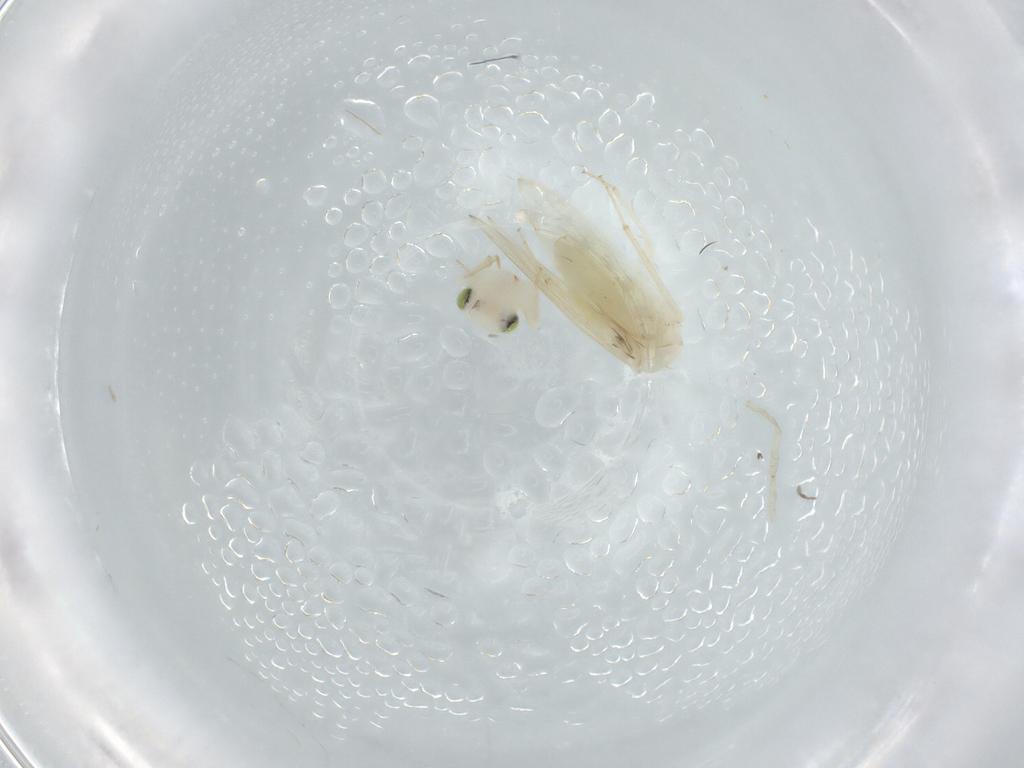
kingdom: Animalia
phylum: Arthropoda
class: Insecta
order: Psocodea
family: Lepidopsocidae
